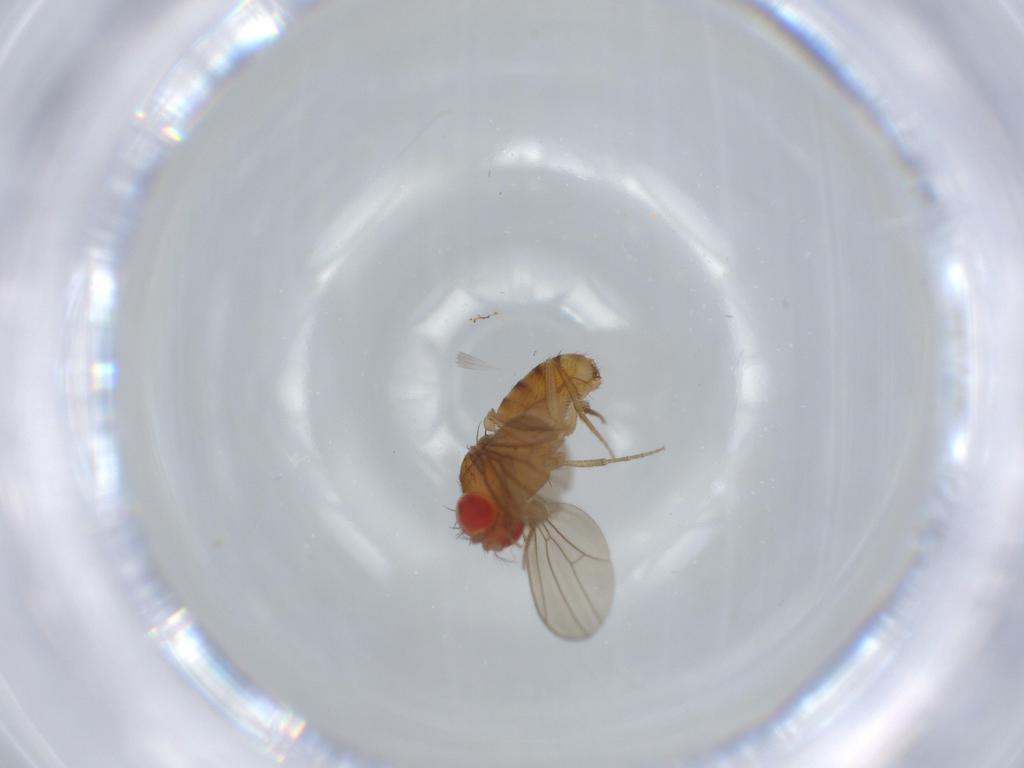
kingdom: Animalia
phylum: Arthropoda
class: Insecta
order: Diptera
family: Drosophilidae
